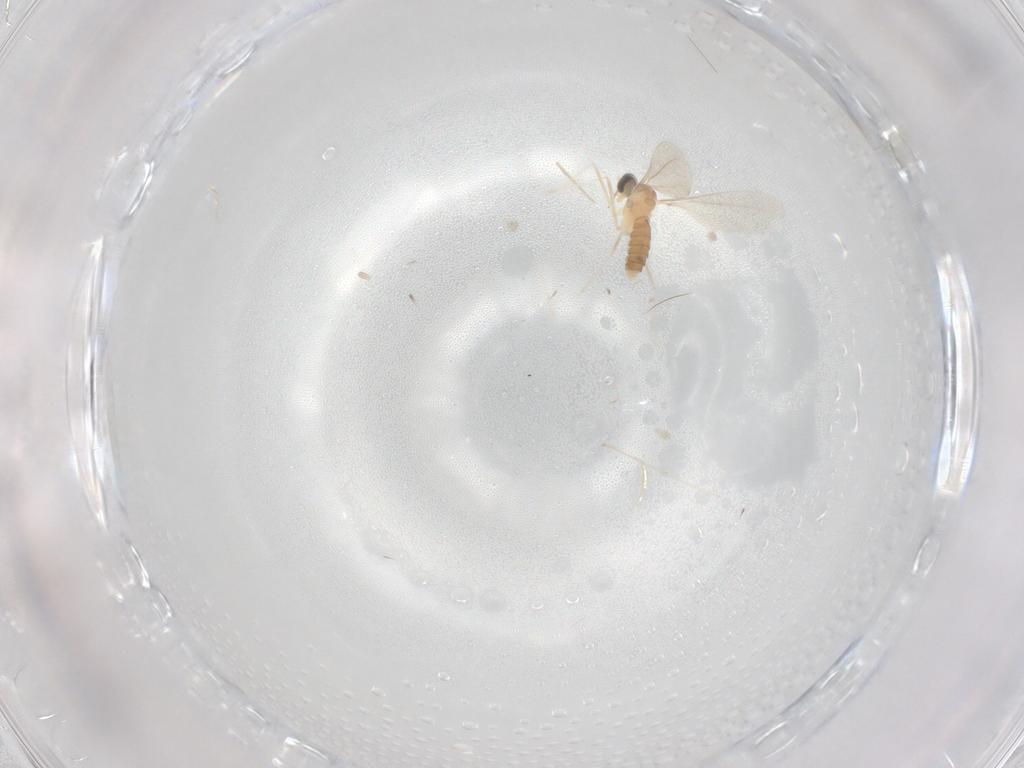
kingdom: Animalia
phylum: Arthropoda
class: Insecta
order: Diptera
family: Cecidomyiidae
